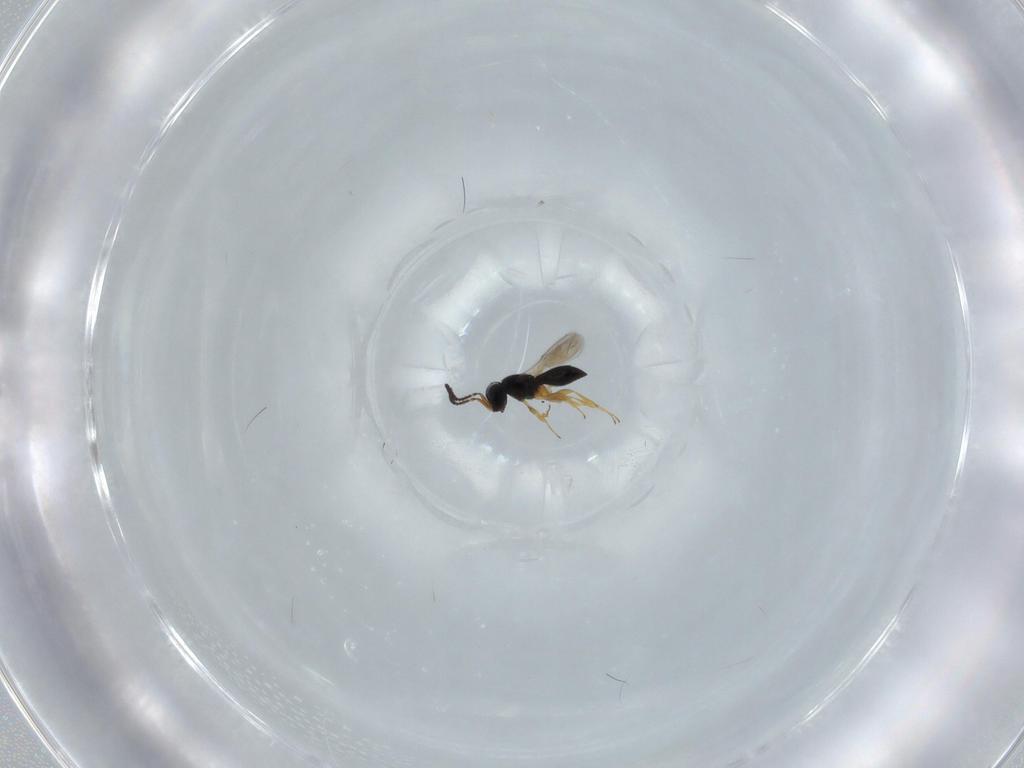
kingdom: Animalia
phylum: Arthropoda
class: Insecta
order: Hymenoptera
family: Scelionidae
